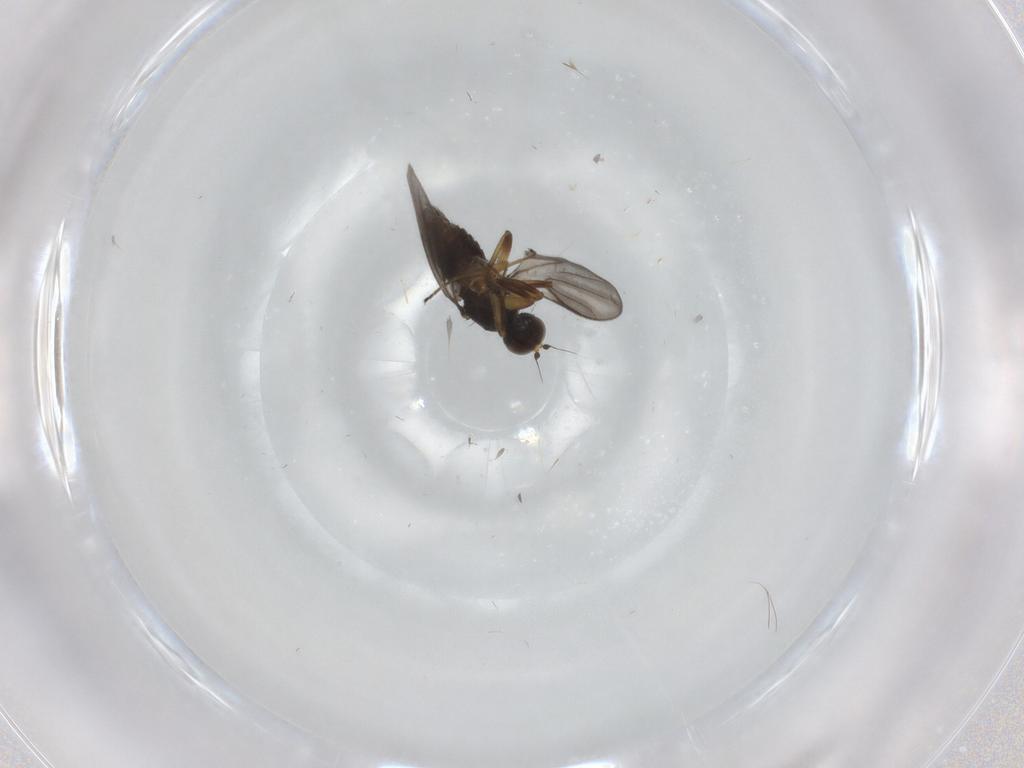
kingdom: Animalia
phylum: Arthropoda
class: Insecta
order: Diptera
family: Hybotidae
